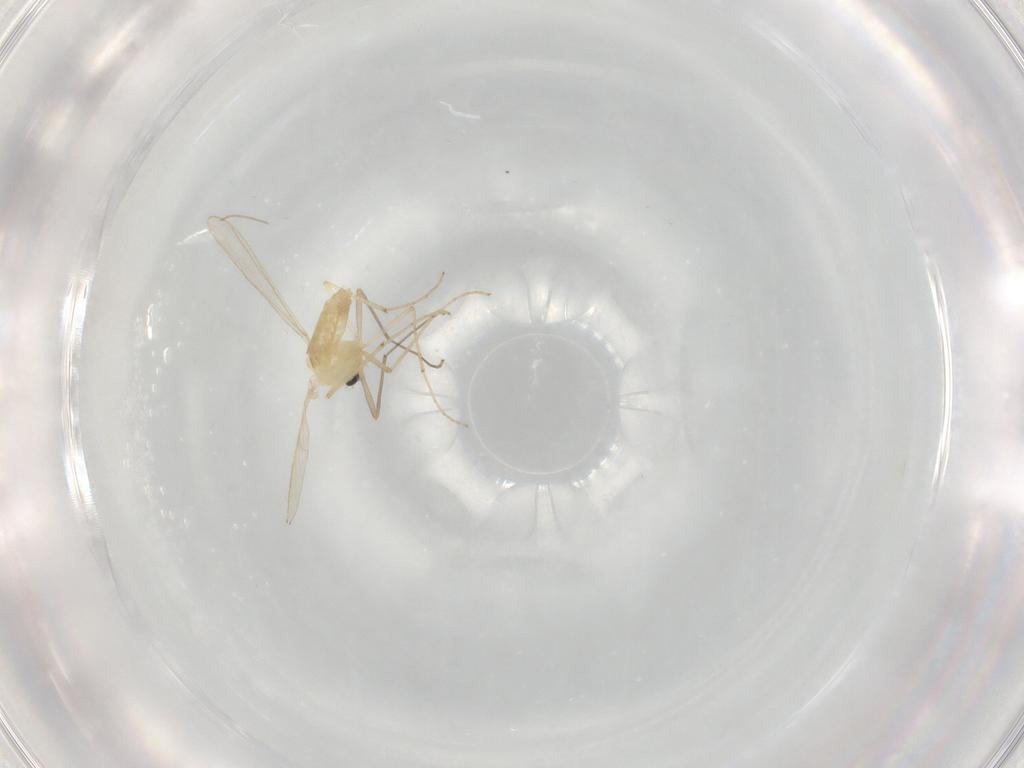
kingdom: Animalia
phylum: Arthropoda
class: Insecta
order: Diptera
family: Chironomidae
